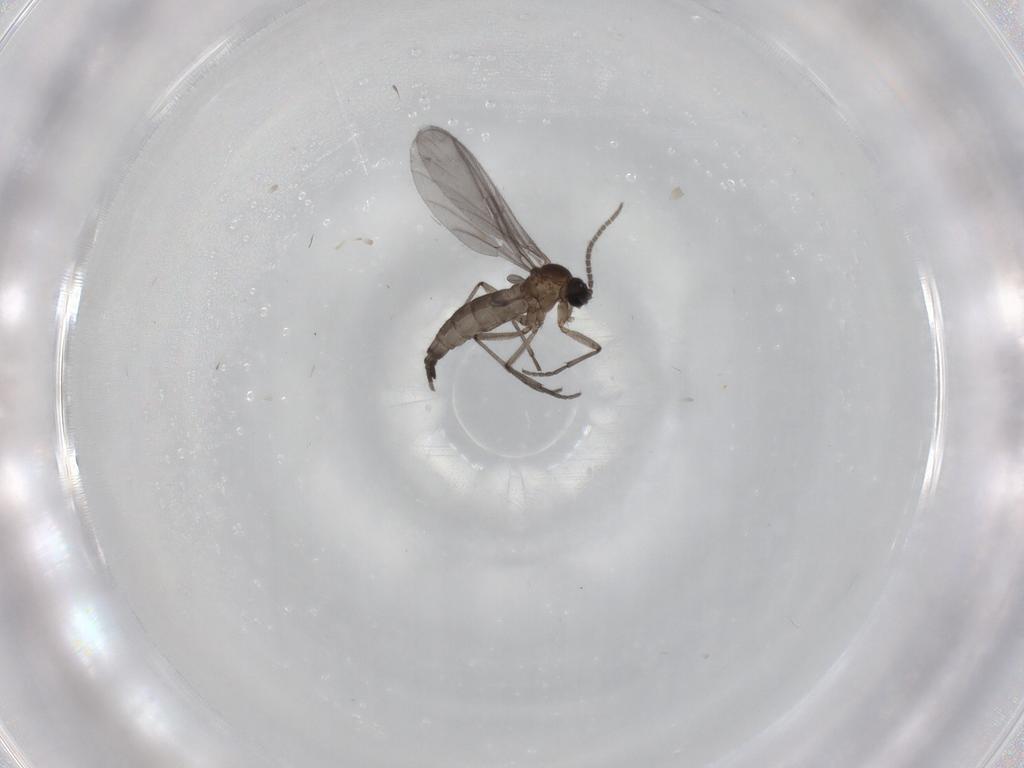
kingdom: Animalia
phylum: Arthropoda
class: Insecta
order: Diptera
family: Sciaridae
